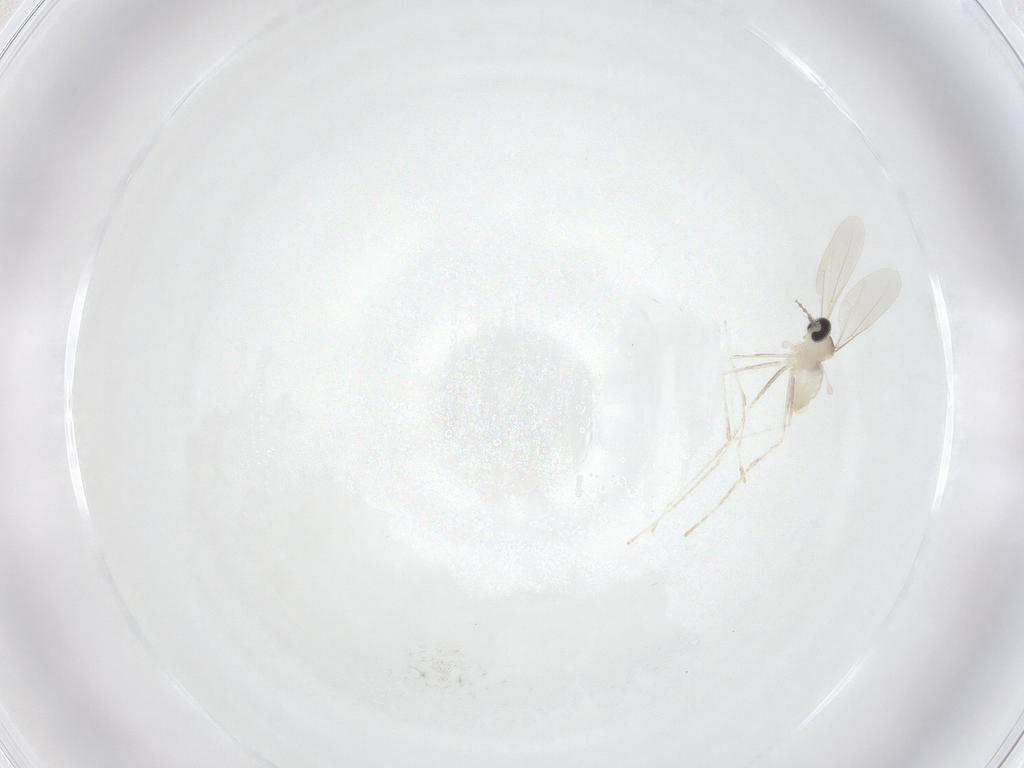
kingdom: Animalia
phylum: Arthropoda
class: Insecta
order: Diptera
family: Cecidomyiidae
